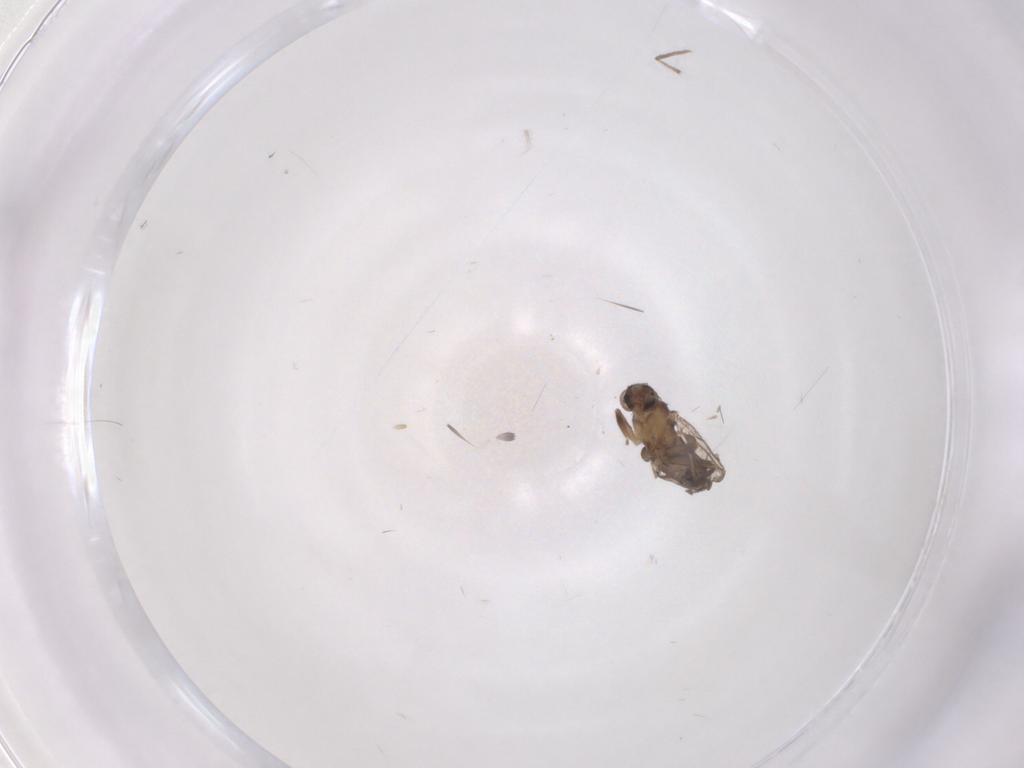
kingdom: Animalia
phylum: Arthropoda
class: Insecta
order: Diptera
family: Phoridae
